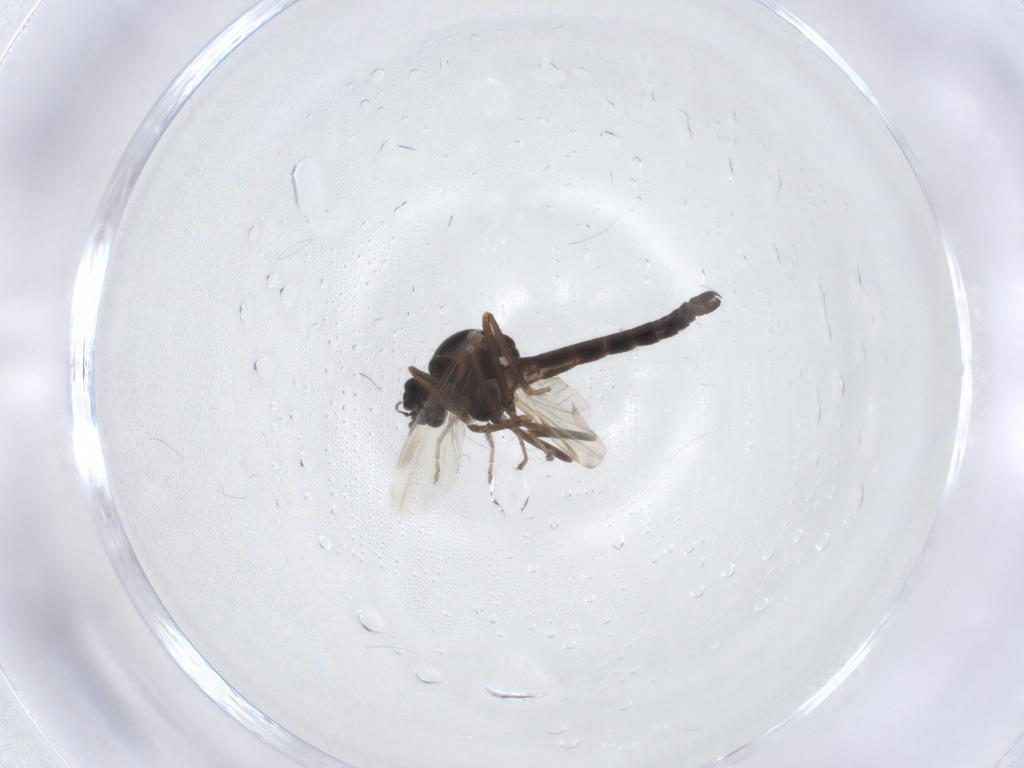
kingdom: Animalia
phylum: Arthropoda
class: Insecta
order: Diptera
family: Ceratopogonidae
